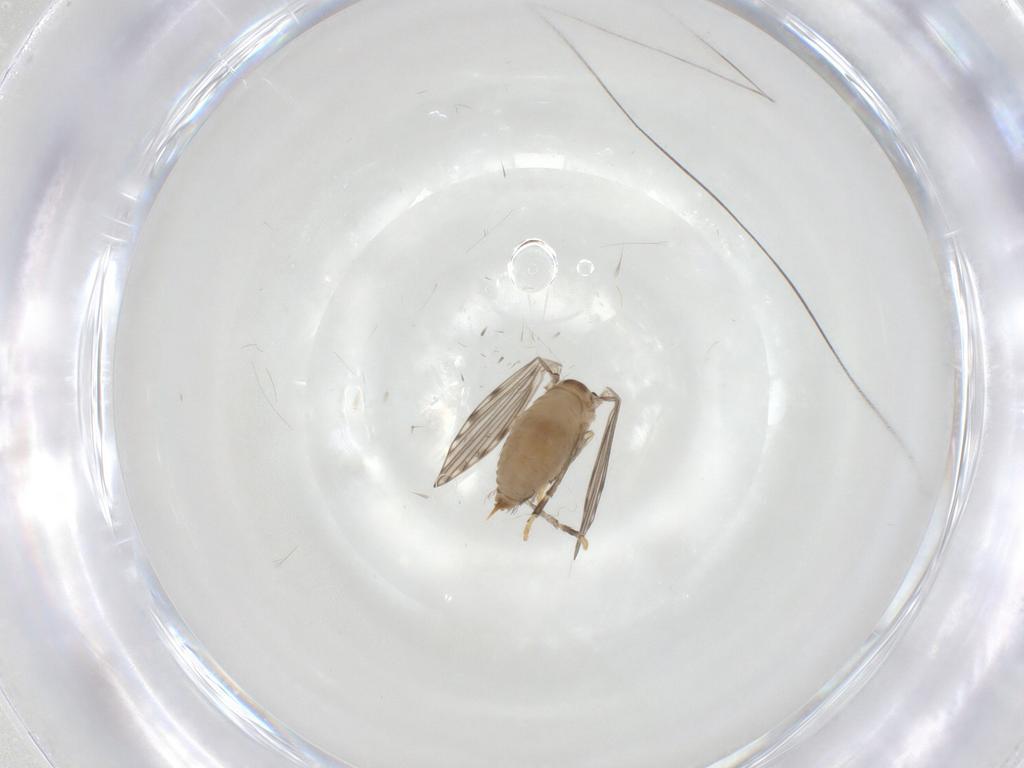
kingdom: Animalia
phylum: Arthropoda
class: Insecta
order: Diptera
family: Psychodidae
